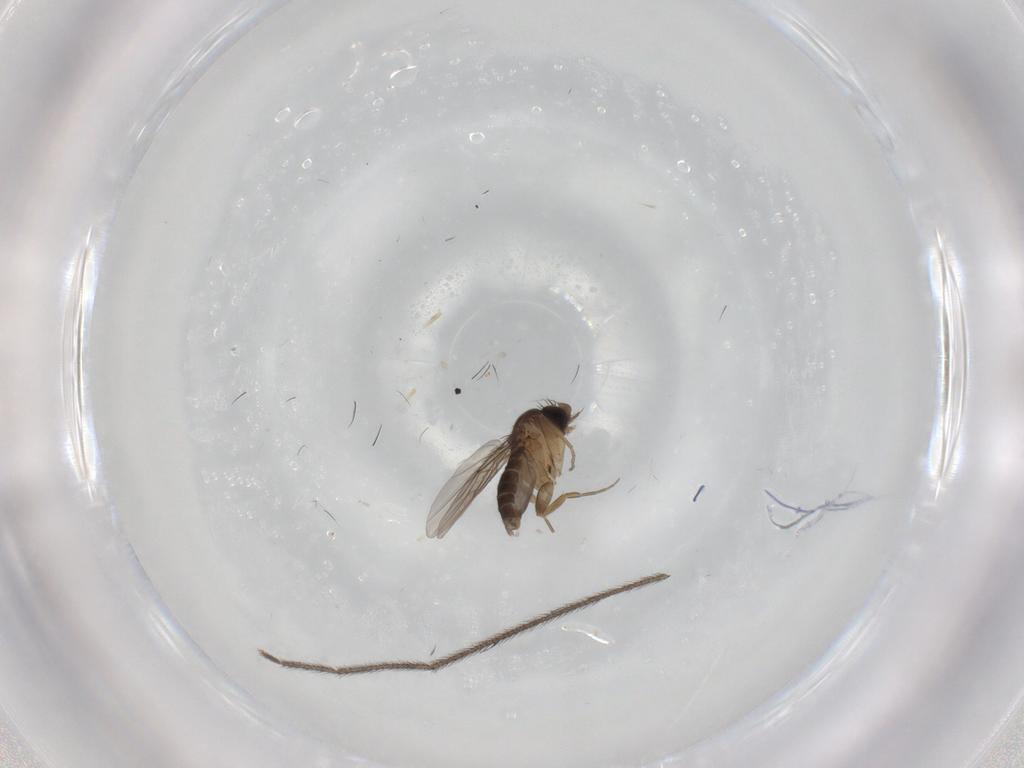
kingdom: Animalia
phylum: Arthropoda
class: Insecta
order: Diptera
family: Phoridae
